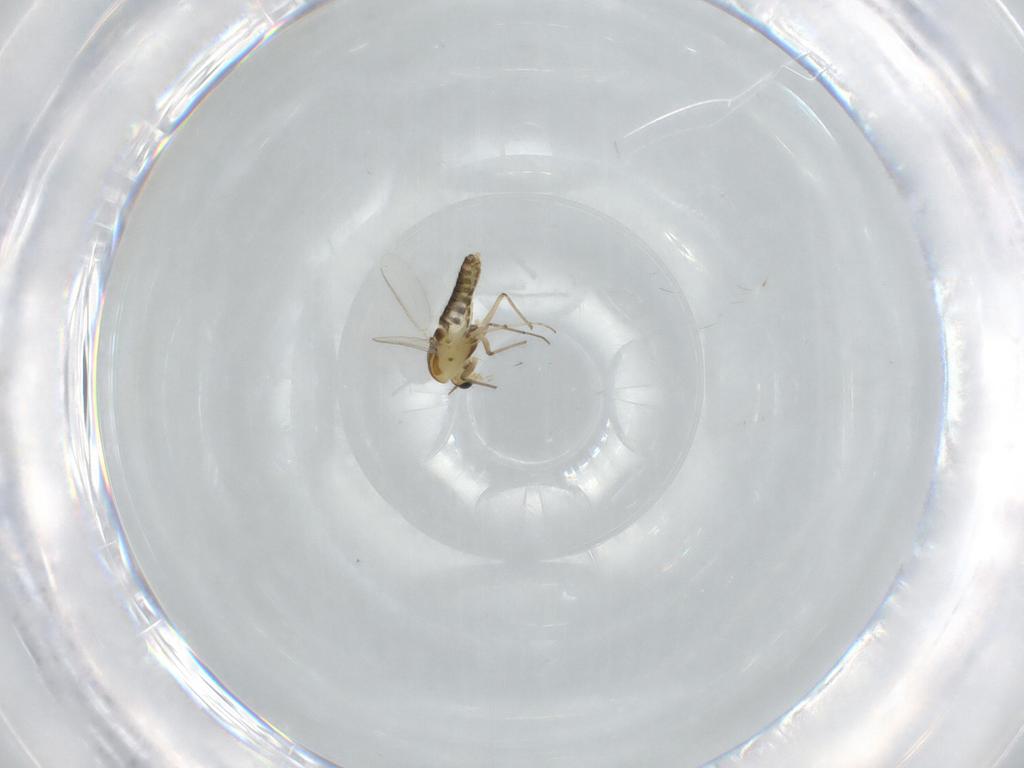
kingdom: Animalia
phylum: Arthropoda
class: Insecta
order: Diptera
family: Chironomidae
